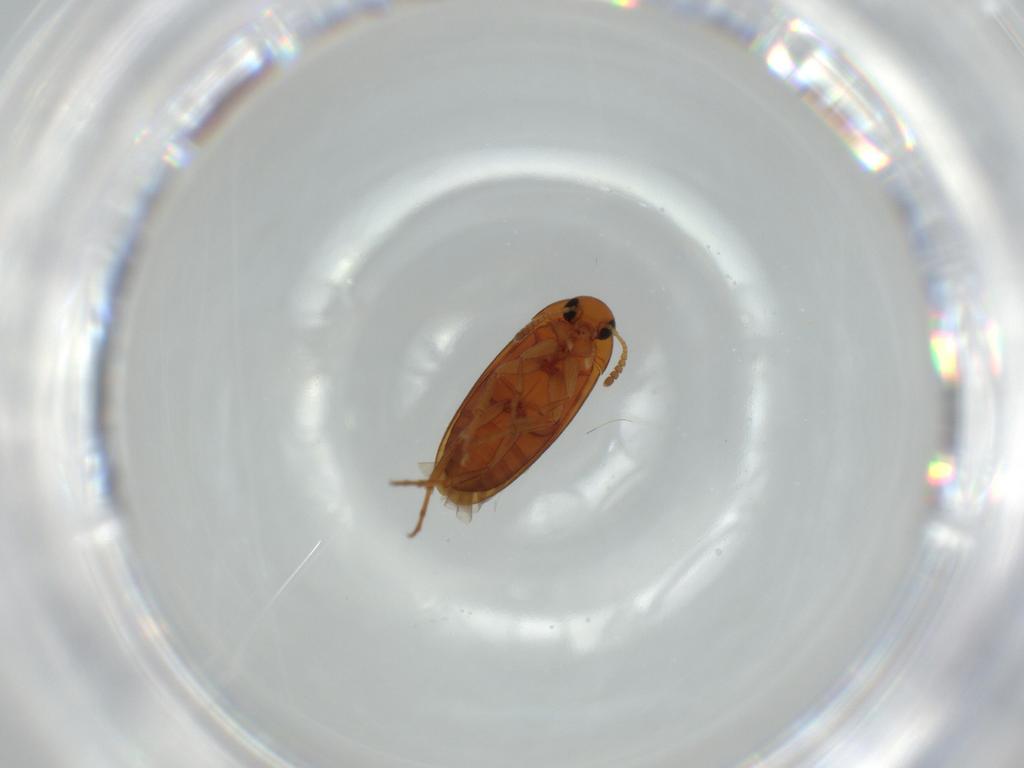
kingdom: Animalia
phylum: Arthropoda
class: Insecta
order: Coleoptera
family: Scraptiidae
